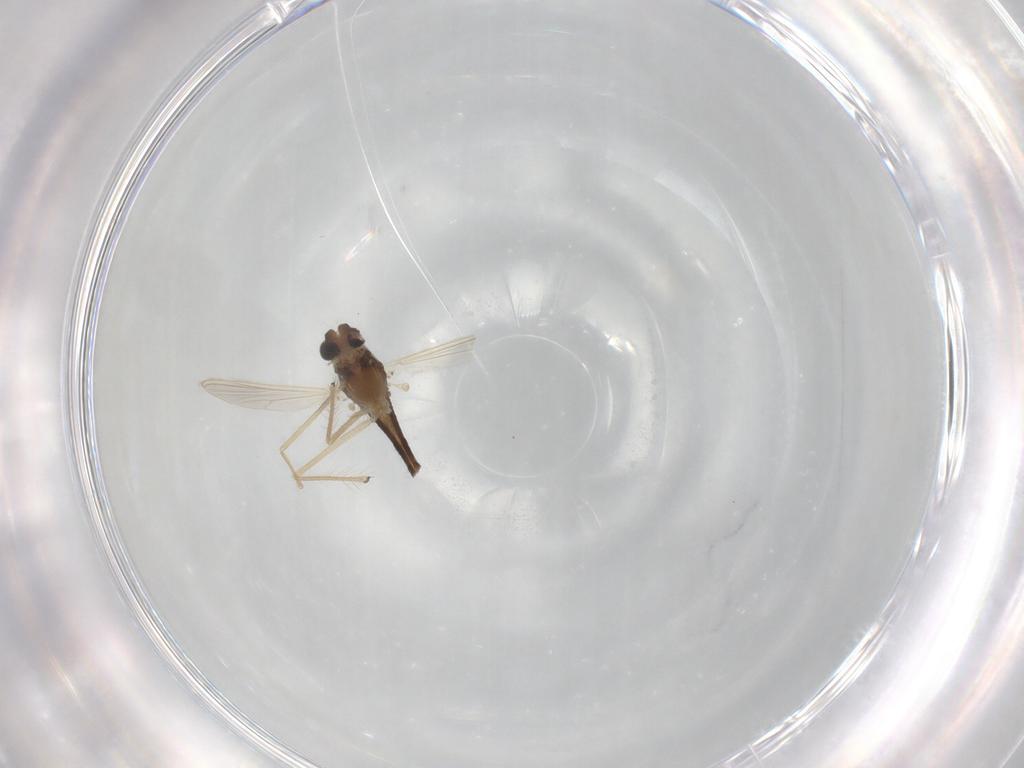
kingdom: Animalia
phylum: Arthropoda
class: Insecta
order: Diptera
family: Chironomidae
